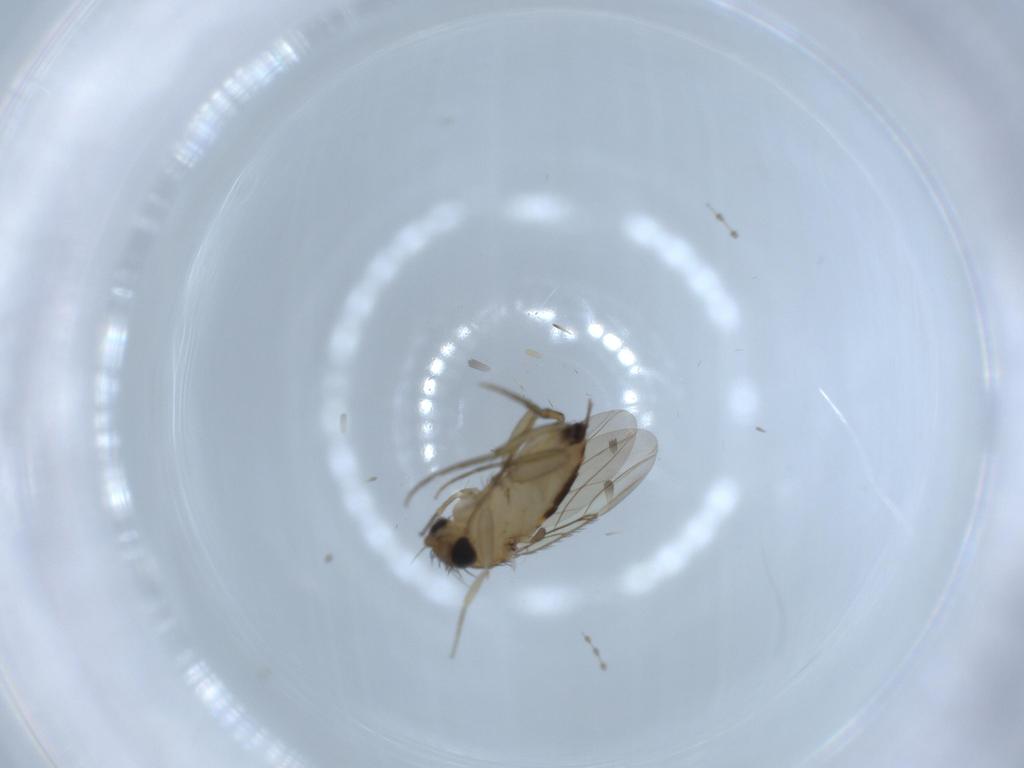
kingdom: Animalia
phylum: Arthropoda
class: Insecta
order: Diptera
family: Phoridae
